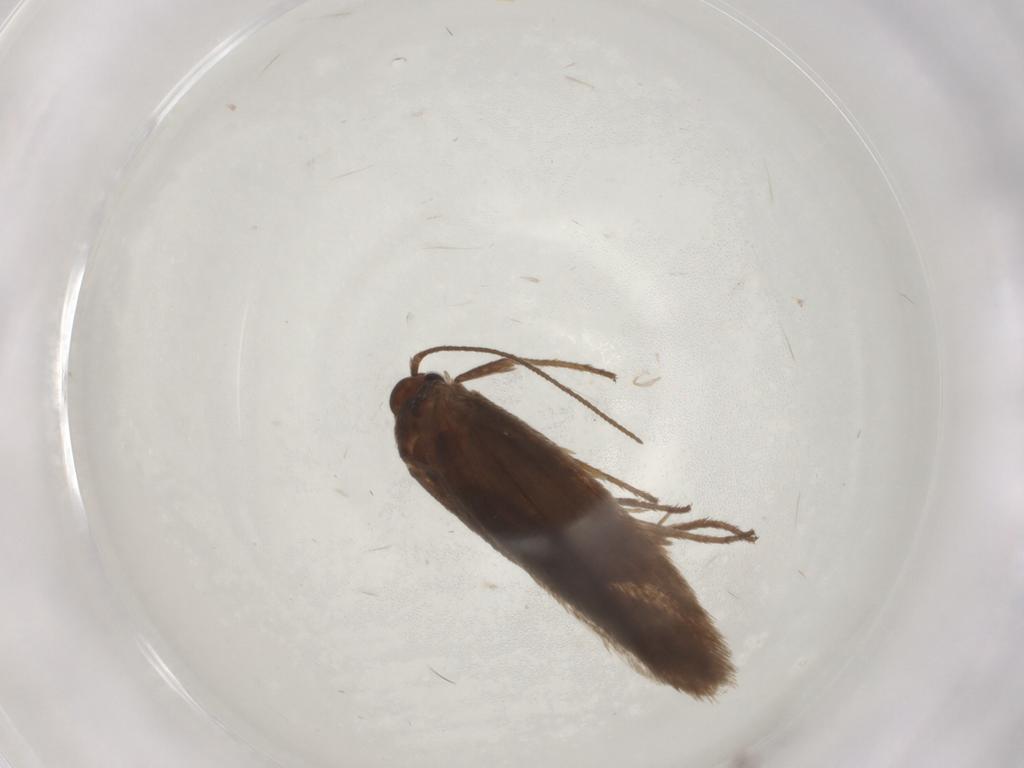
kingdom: Animalia
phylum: Arthropoda
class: Insecta
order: Lepidoptera
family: Limacodidae
